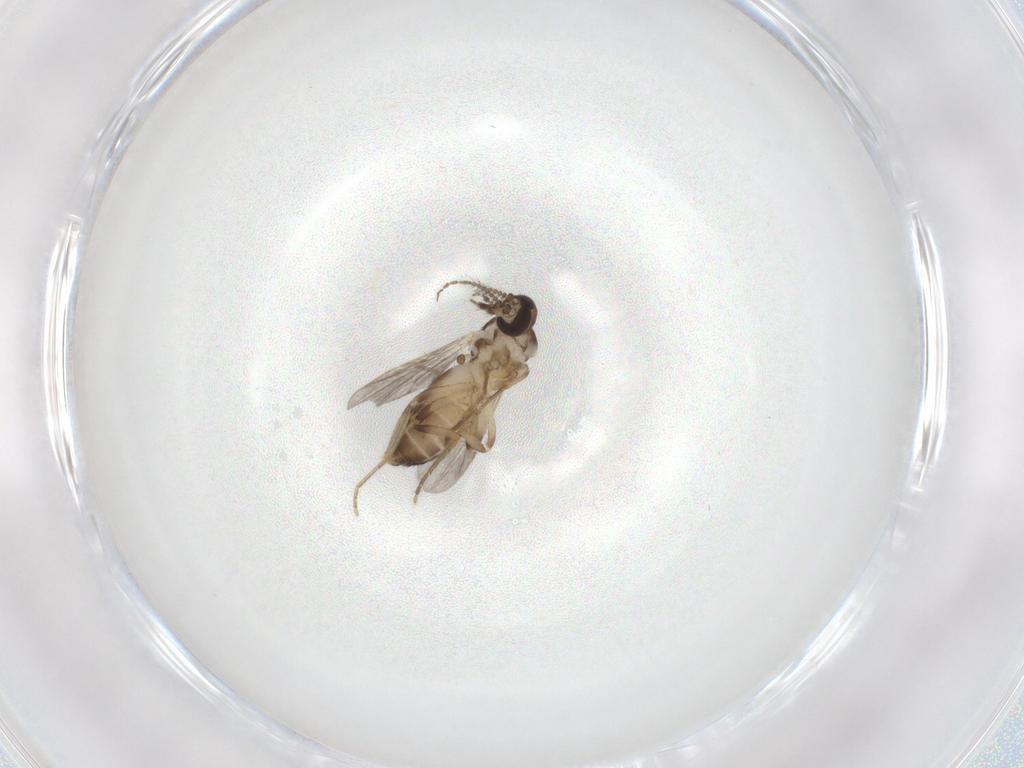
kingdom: Animalia
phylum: Arthropoda
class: Insecta
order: Diptera
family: Ceratopogonidae
